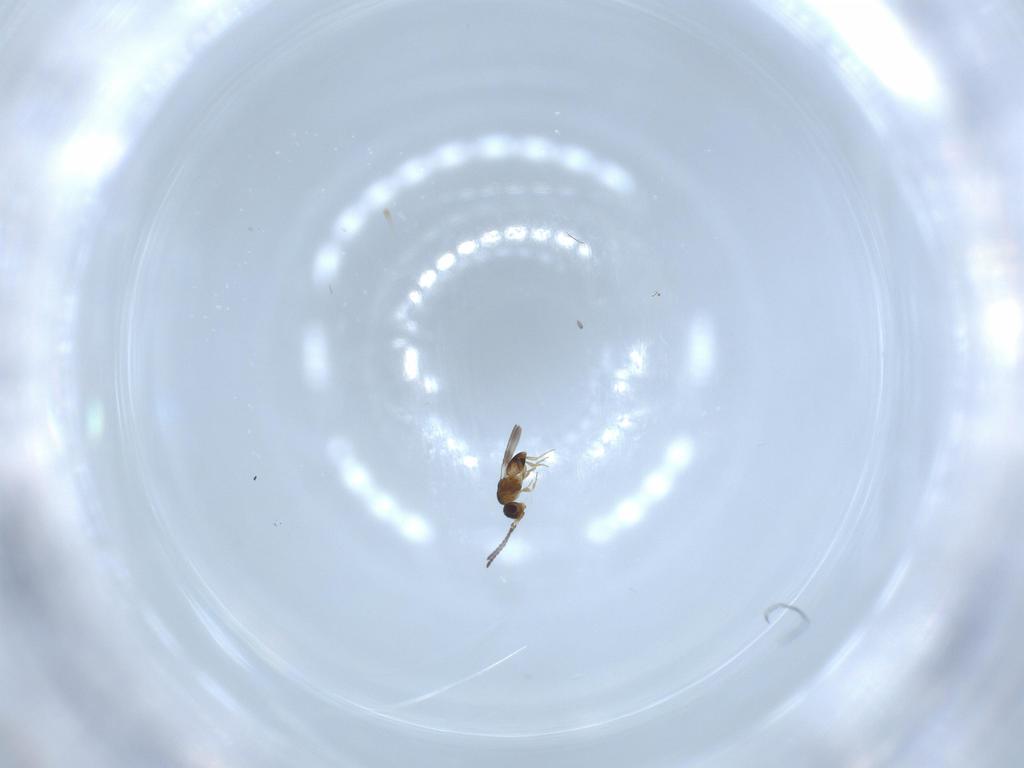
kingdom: Animalia
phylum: Arthropoda
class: Insecta
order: Hymenoptera
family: Ceraphronidae
